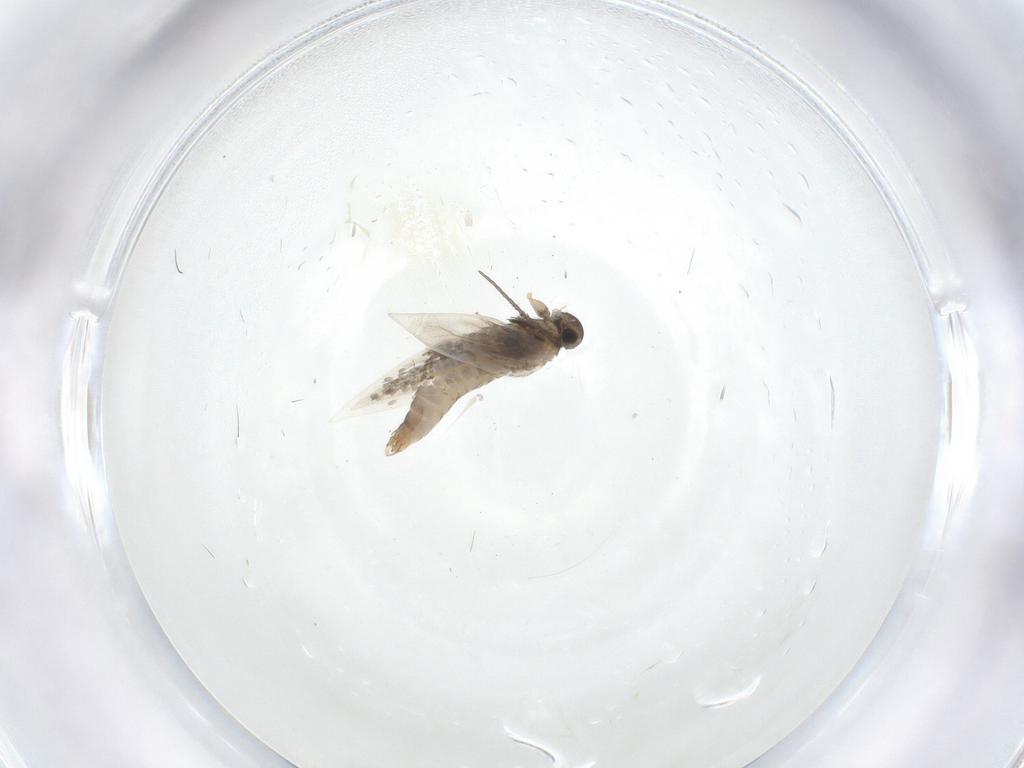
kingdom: Animalia
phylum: Arthropoda
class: Insecta
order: Lepidoptera
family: Heliozelidae
